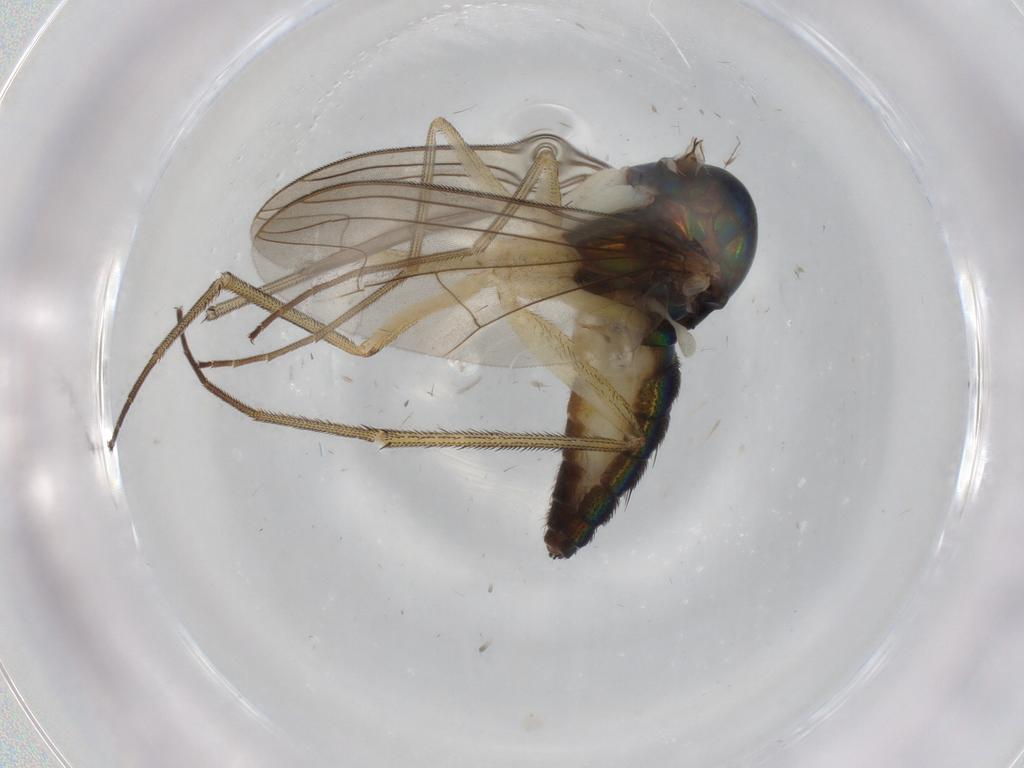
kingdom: Animalia
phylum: Arthropoda
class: Insecta
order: Diptera
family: Dolichopodidae
